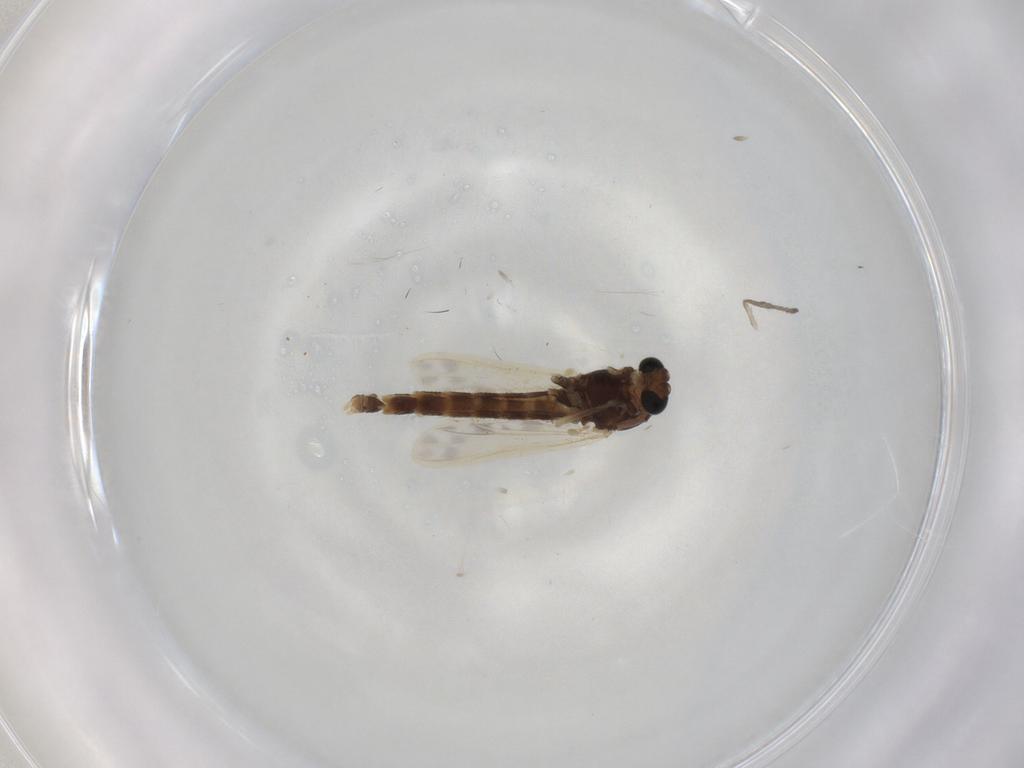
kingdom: Animalia
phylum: Arthropoda
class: Insecta
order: Diptera
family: Chironomidae
